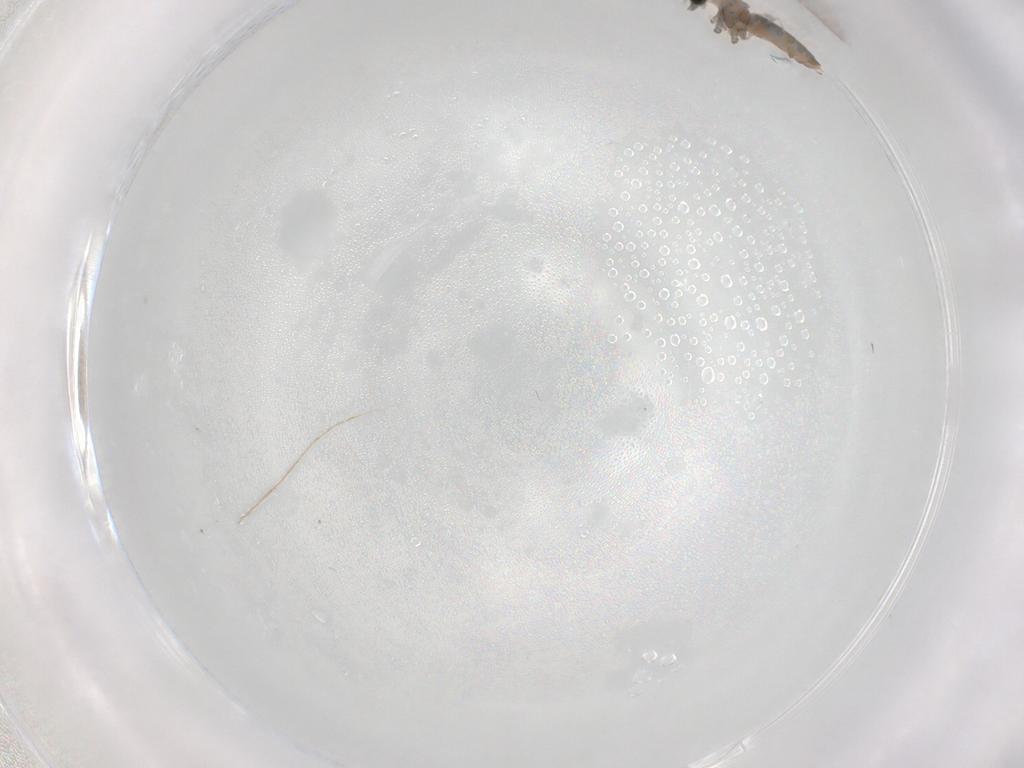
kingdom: Animalia
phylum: Arthropoda
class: Insecta
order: Diptera
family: Cecidomyiidae
